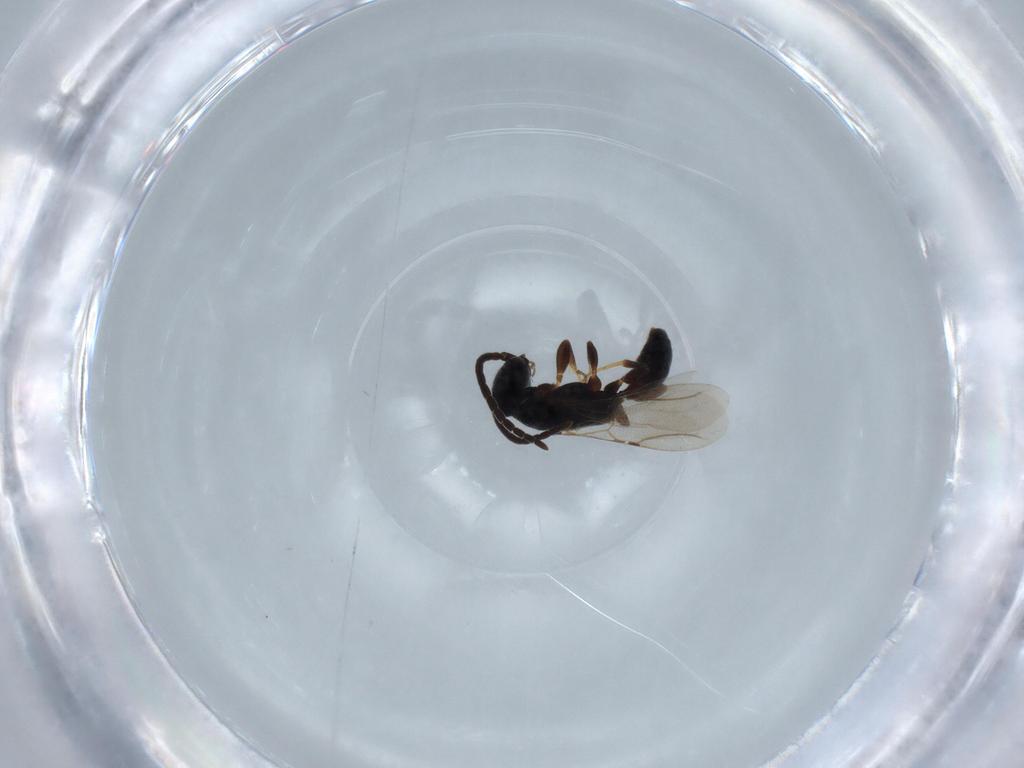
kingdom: Animalia
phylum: Arthropoda
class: Insecta
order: Hymenoptera
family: Bethylidae
